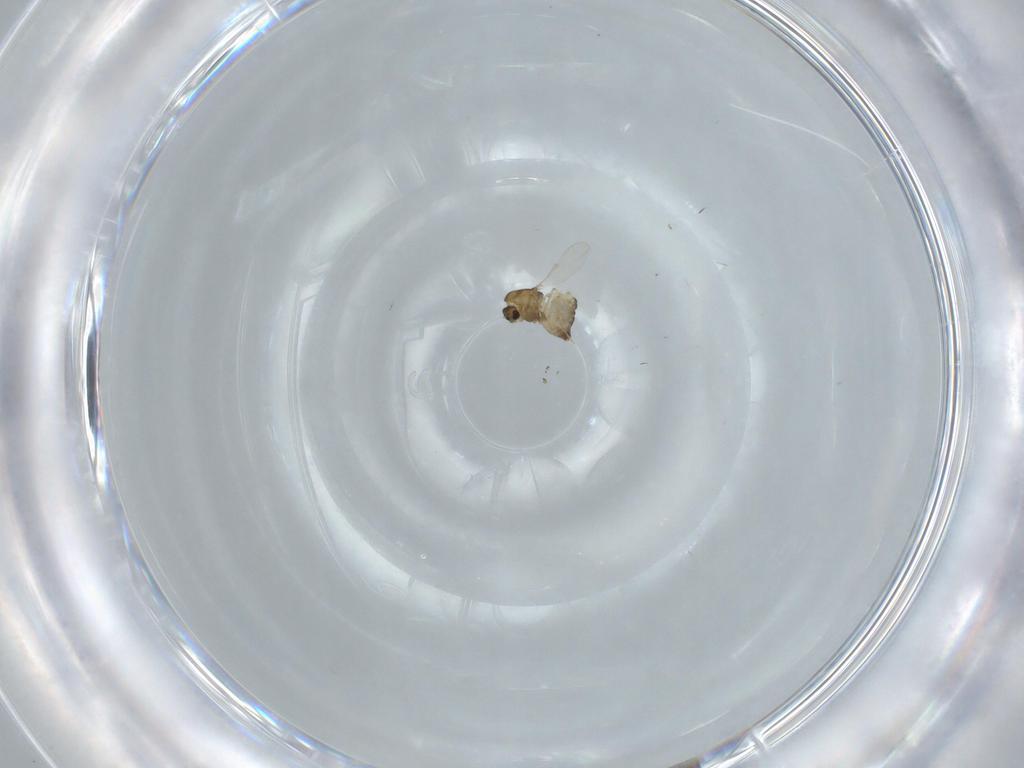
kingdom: Animalia
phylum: Arthropoda
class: Insecta
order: Diptera
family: Chironomidae
